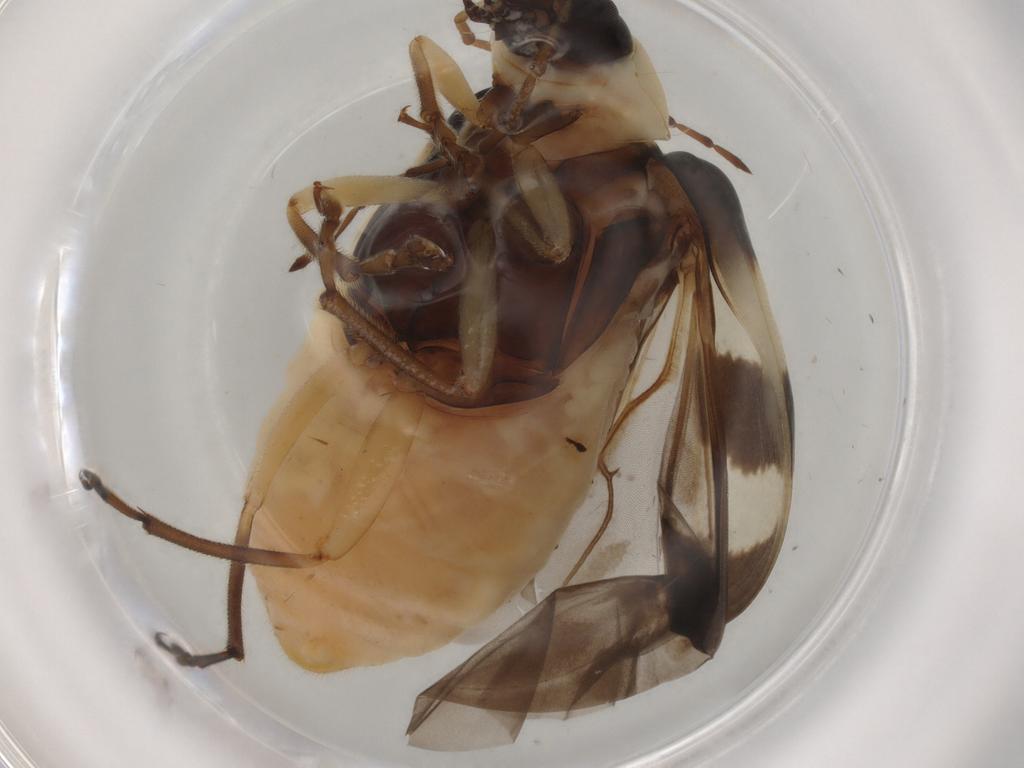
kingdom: Animalia
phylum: Arthropoda
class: Insecta
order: Coleoptera
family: Chrysomelidae
